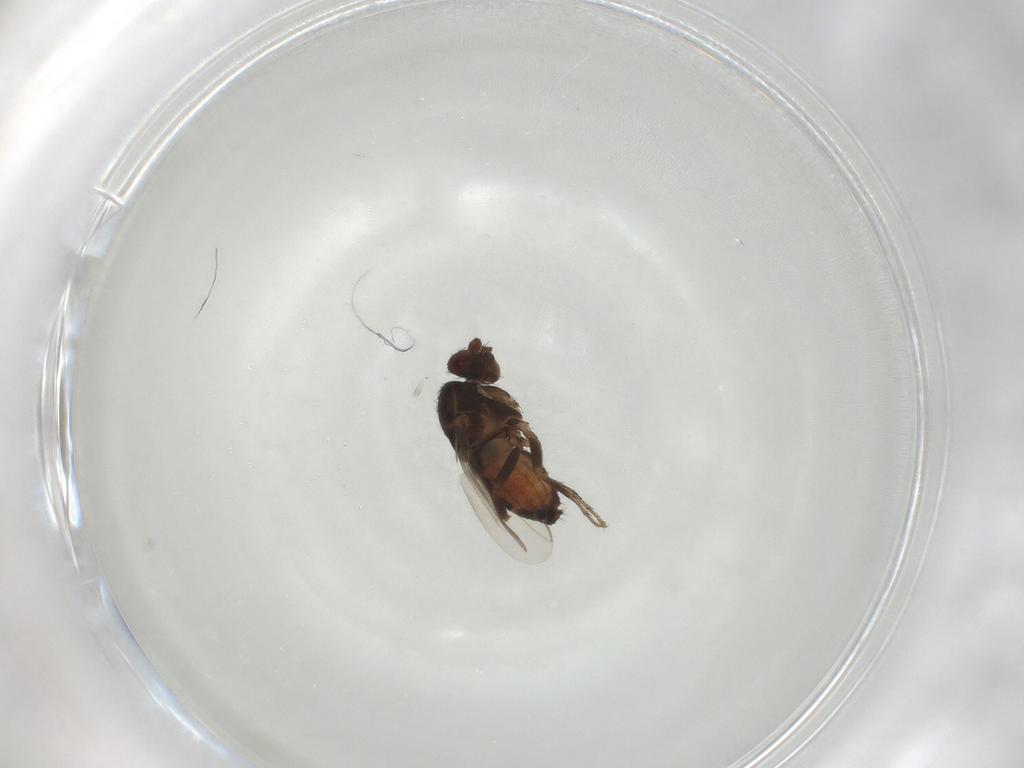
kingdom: Animalia
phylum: Arthropoda
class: Insecta
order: Diptera
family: Sphaeroceridae
